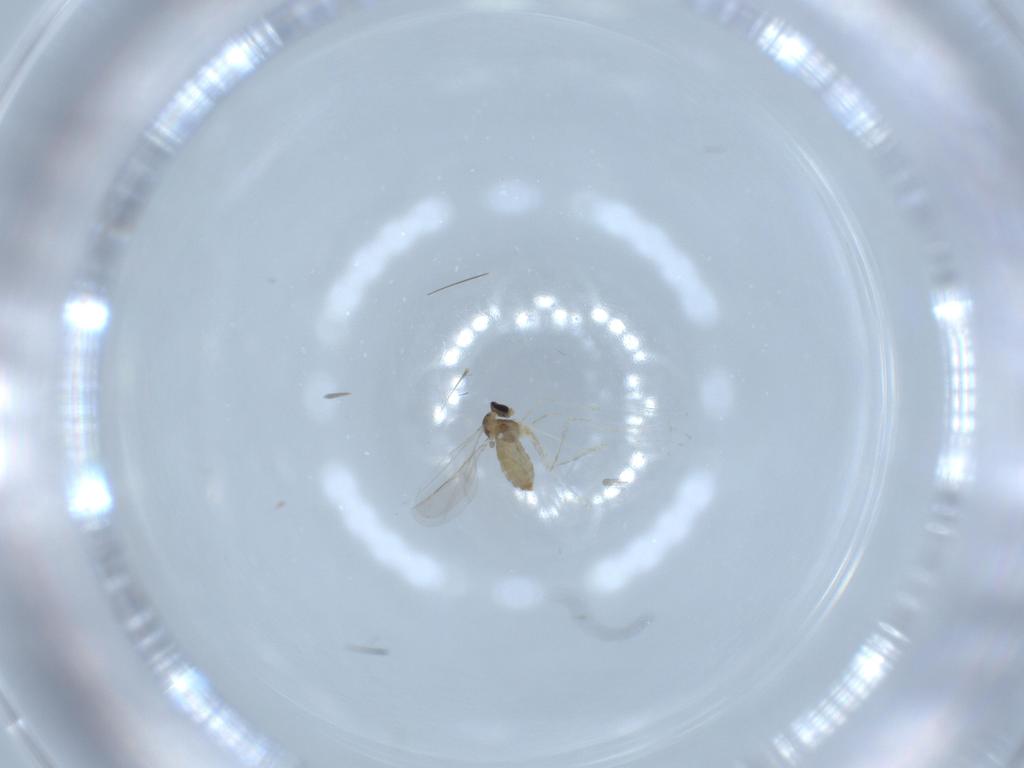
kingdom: Animalia
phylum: Arthropoda
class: Insecta
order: Diptera
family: Cecidomyiidae
